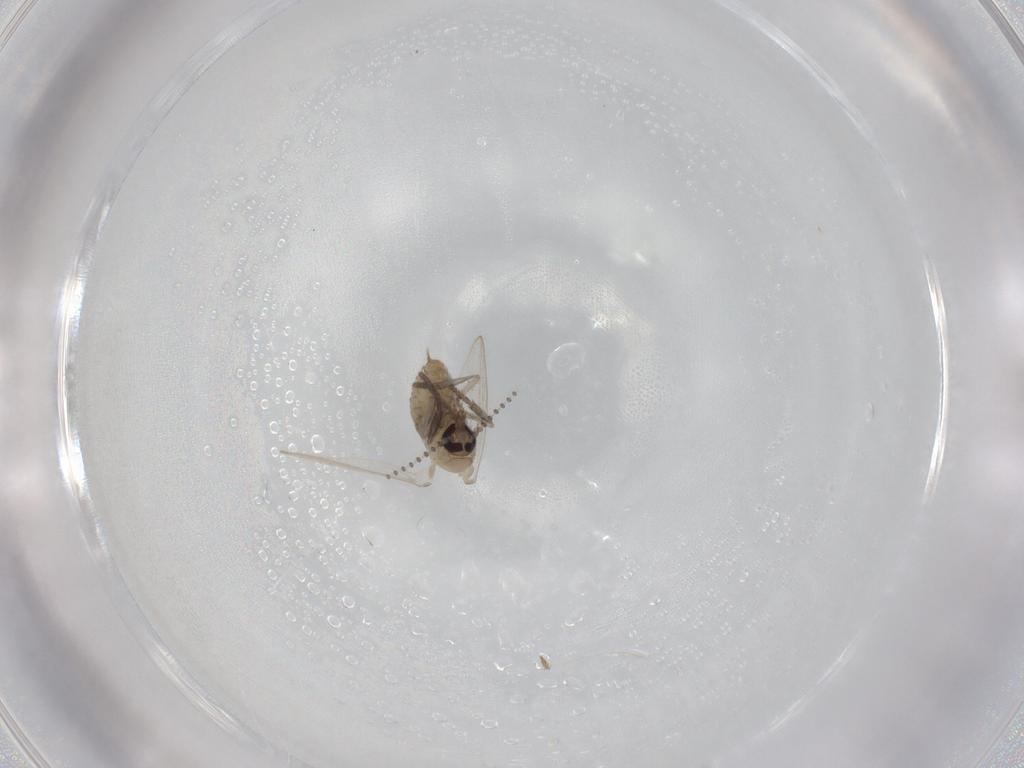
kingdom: Animalia
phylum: Arthropoda
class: Insecta
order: Diptera
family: Psychodidae
